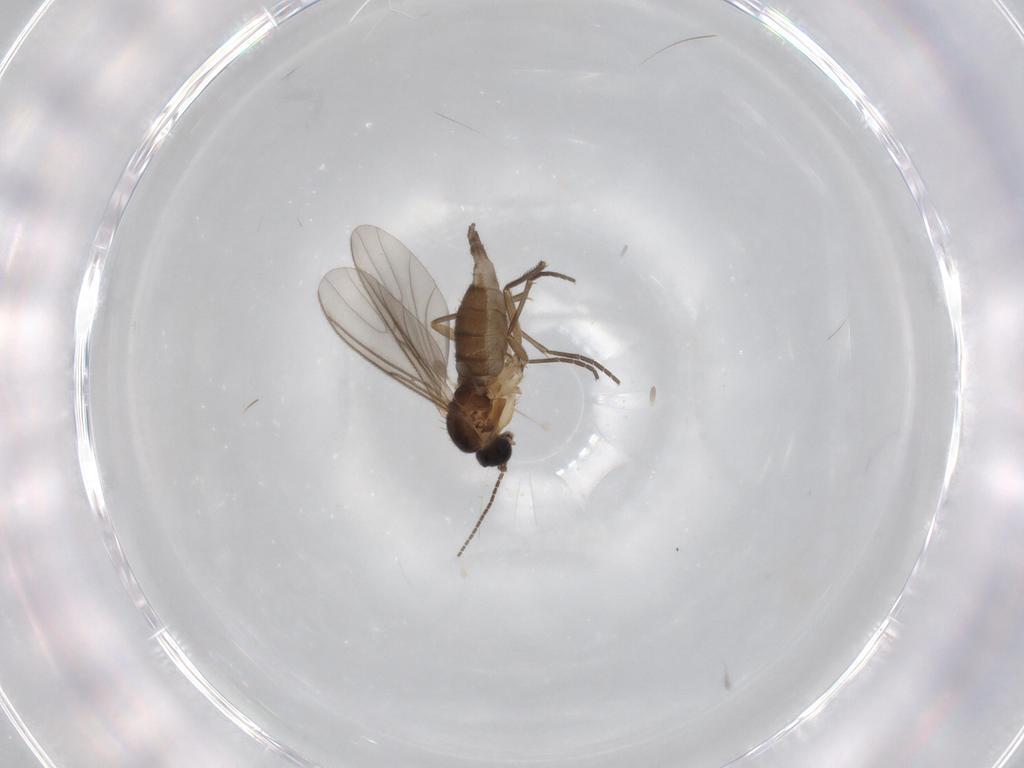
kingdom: Animalia
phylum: Arthropoda
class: Insecta
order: Diptera
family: Sciaridae
